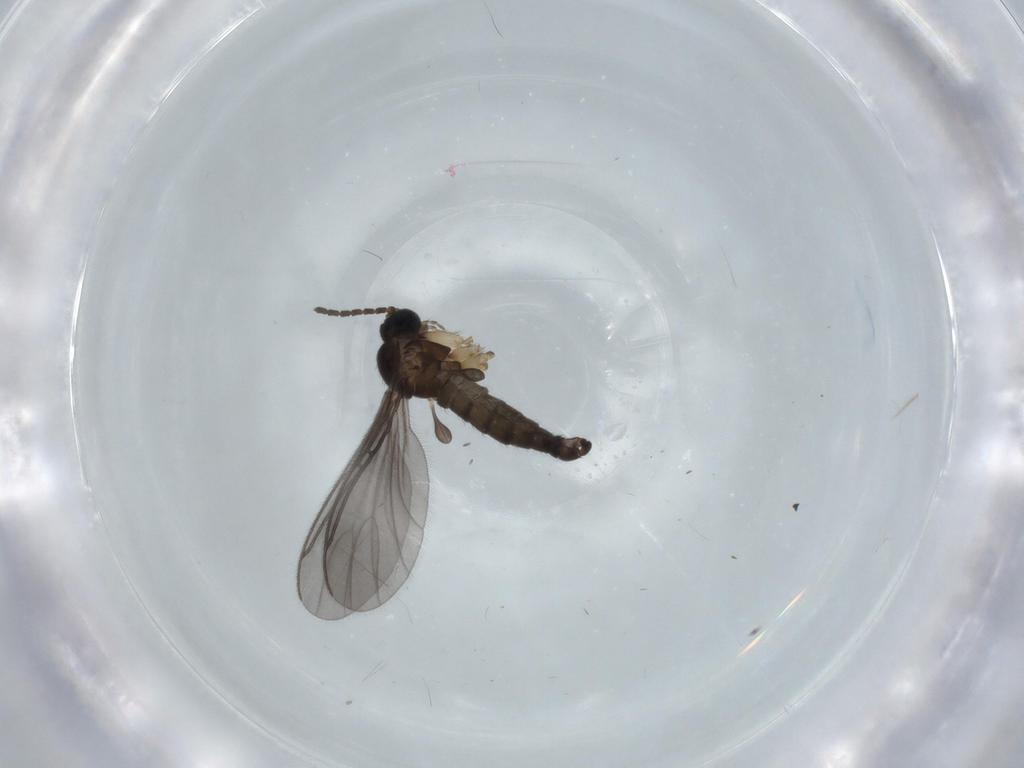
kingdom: Animalia
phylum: Arthropoda
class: Insecta
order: Diptera
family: Sciaridae
